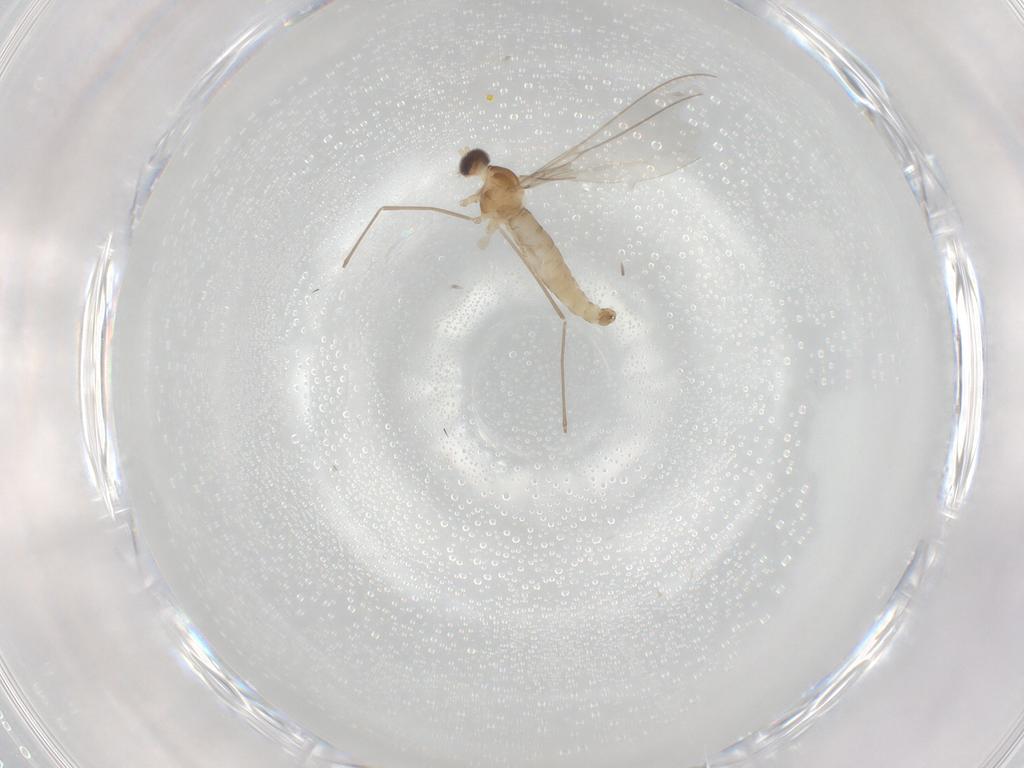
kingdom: Animalia
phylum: Arthropoda
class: Insecta
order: Diptera
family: Cecidomyiidae
